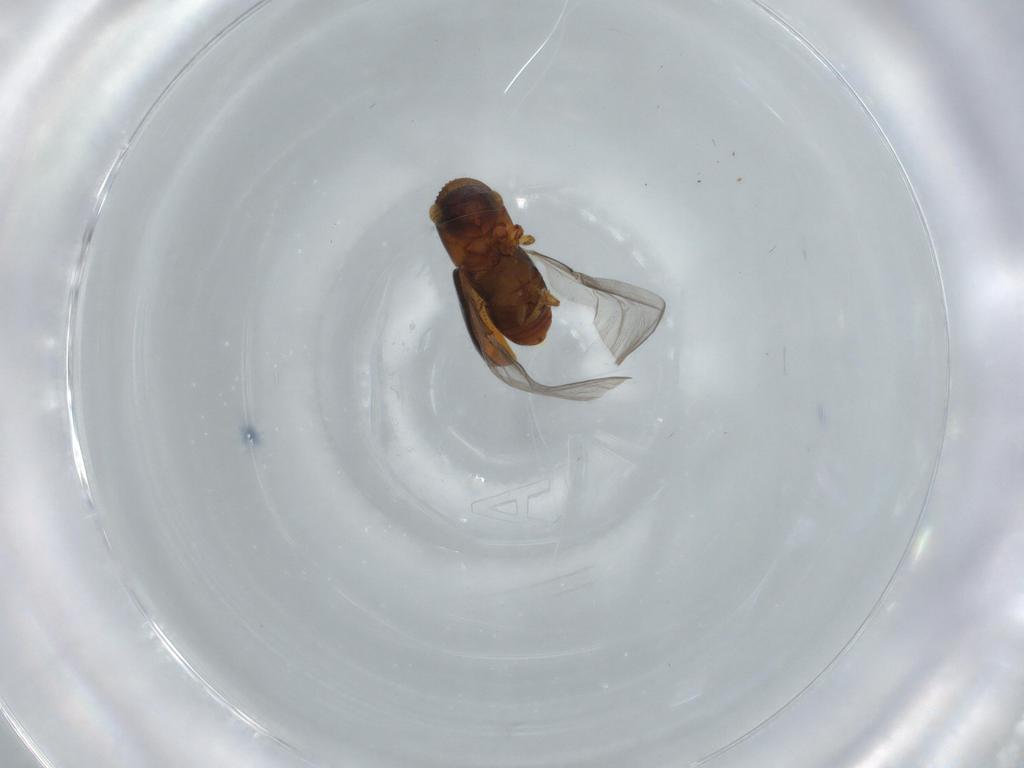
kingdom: Animalia
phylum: Arthropoda
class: Insecta
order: Coleoptera
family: Curculionidae
